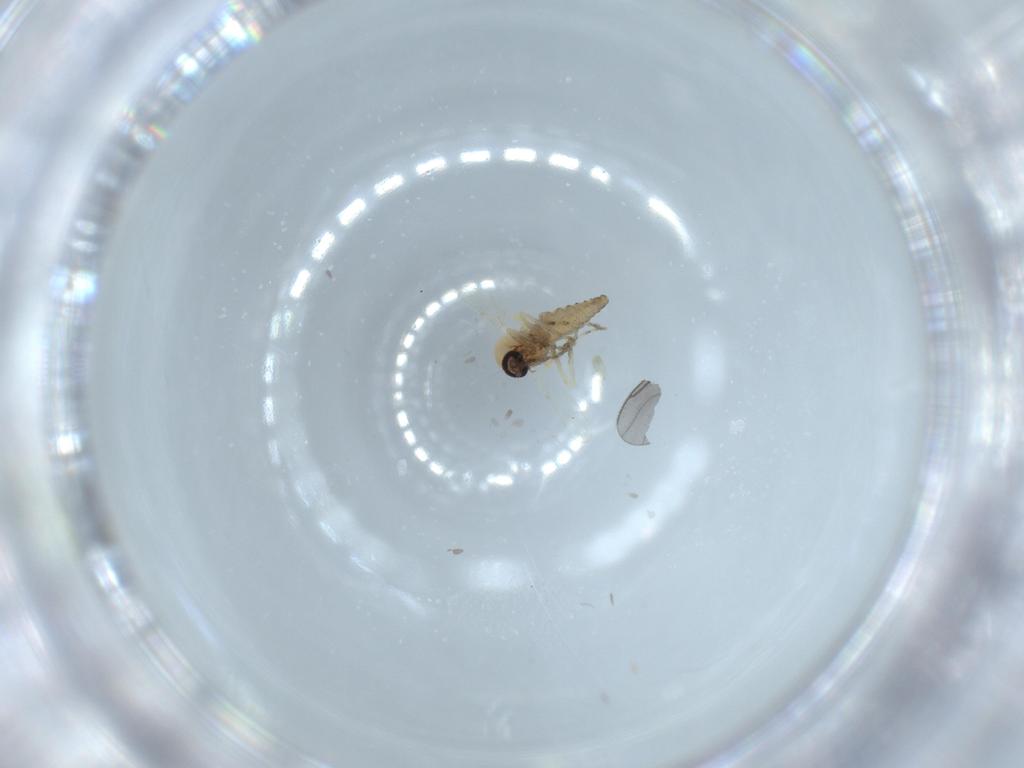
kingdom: Animalia
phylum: Arthropoda
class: Insecta
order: Diptera
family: Ceratopogonidae
